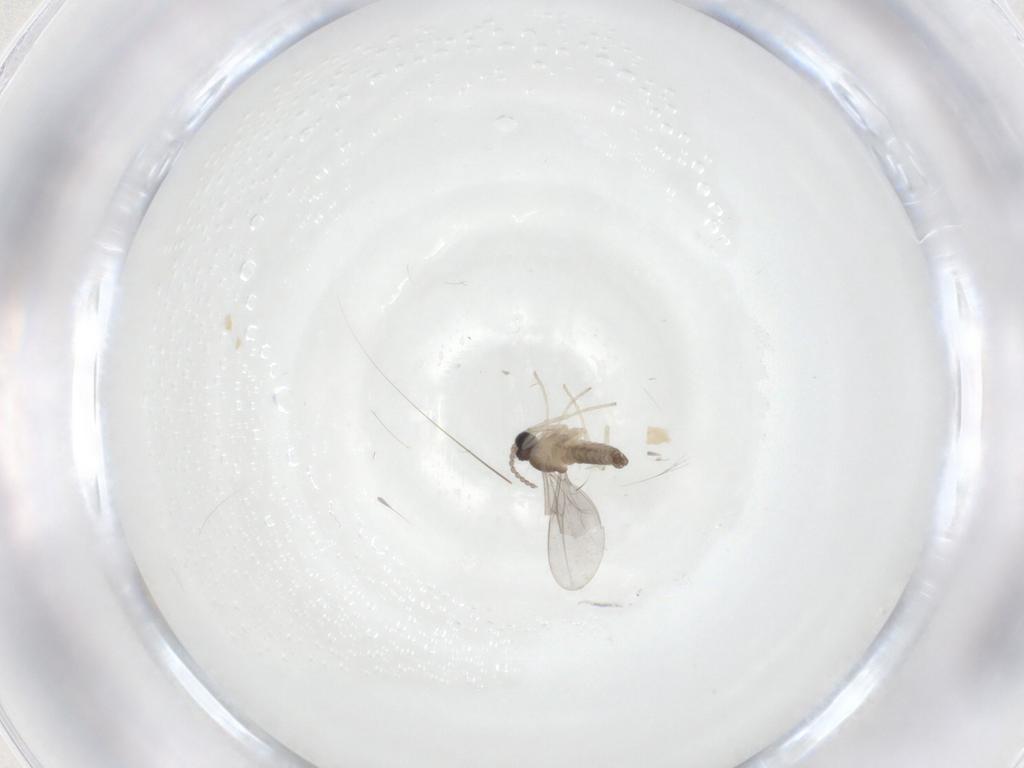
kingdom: Animalia
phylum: Arthropoda
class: Insecta
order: Diptera
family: Cecidomyiidae
